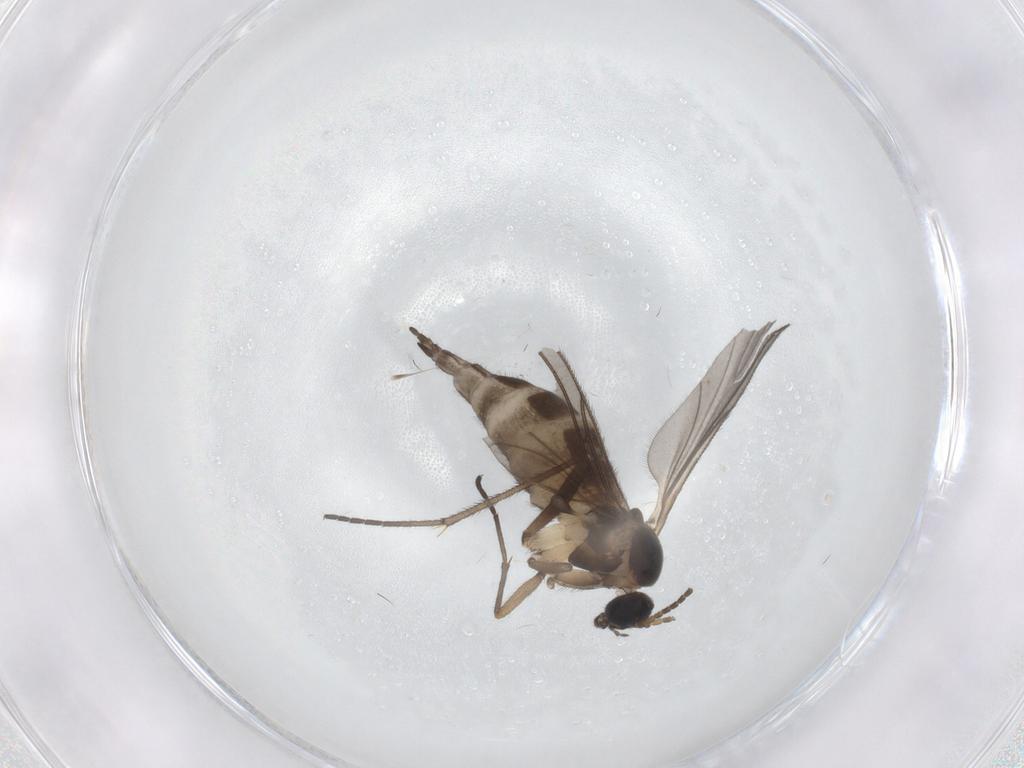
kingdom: Animalia
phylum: Arthropoda
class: Insecta
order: Diptera
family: Sciaridae
